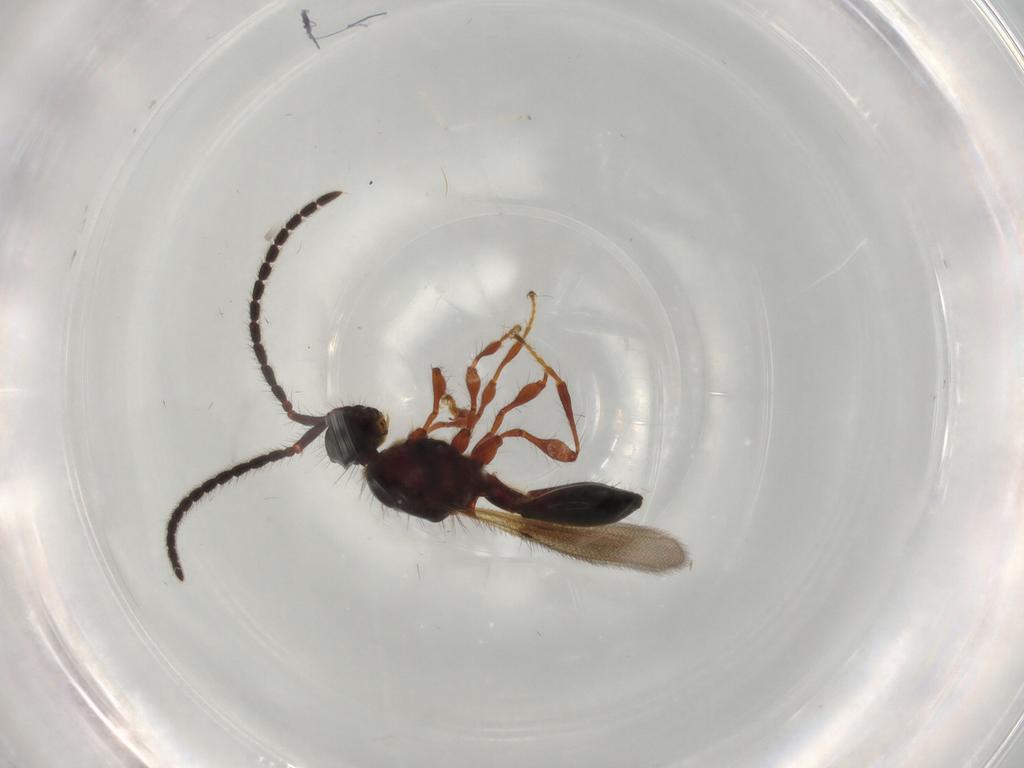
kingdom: Animalia
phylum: Arthropoda
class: Insecta
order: Hymenoptera
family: Diapriidae
